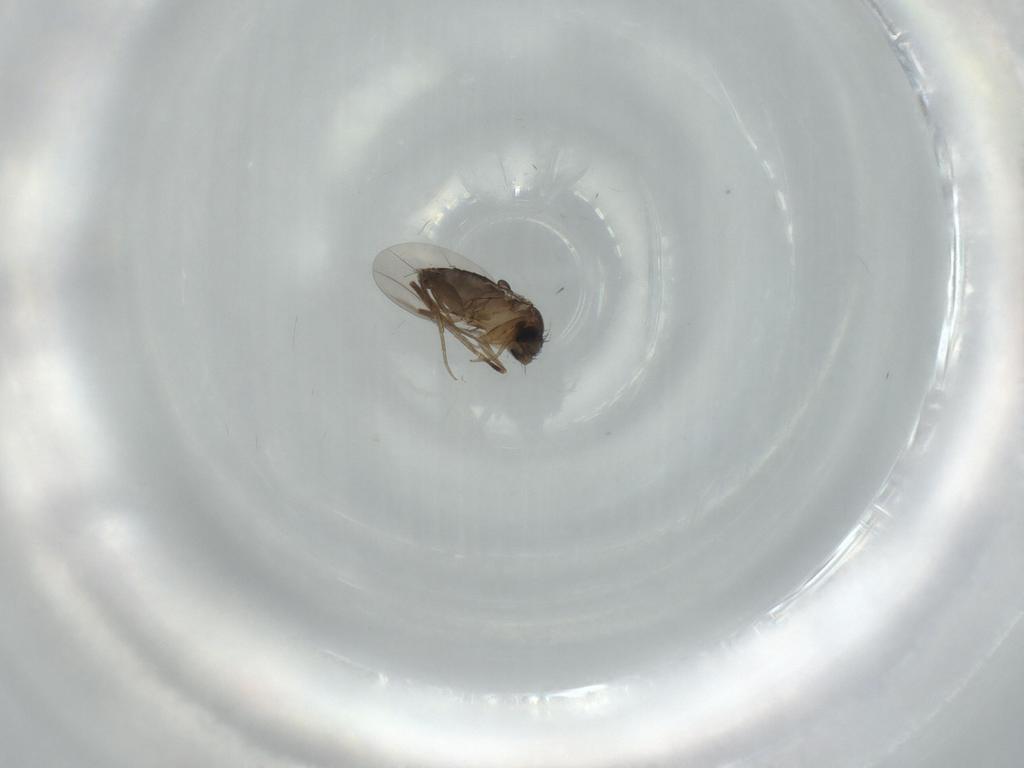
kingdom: Animalia
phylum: Arthropoda
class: Insecta
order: Diptera
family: Phoridae
